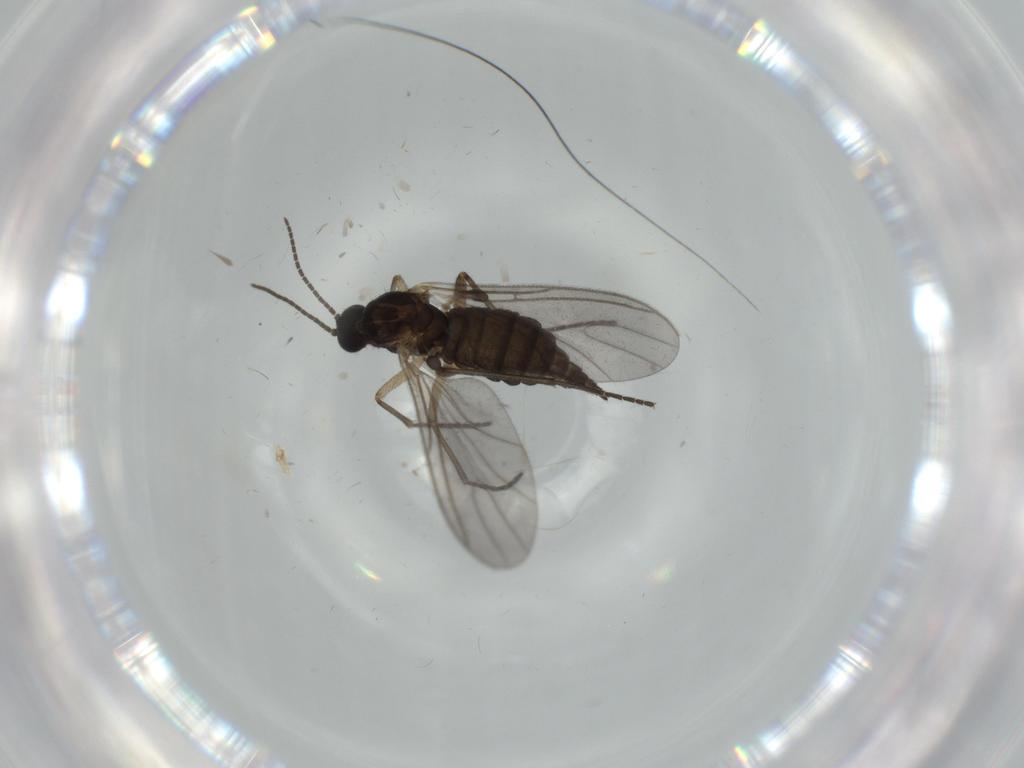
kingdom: Animalia
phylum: Arthropoda
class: Insecta
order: Diptera
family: Sciaridae
